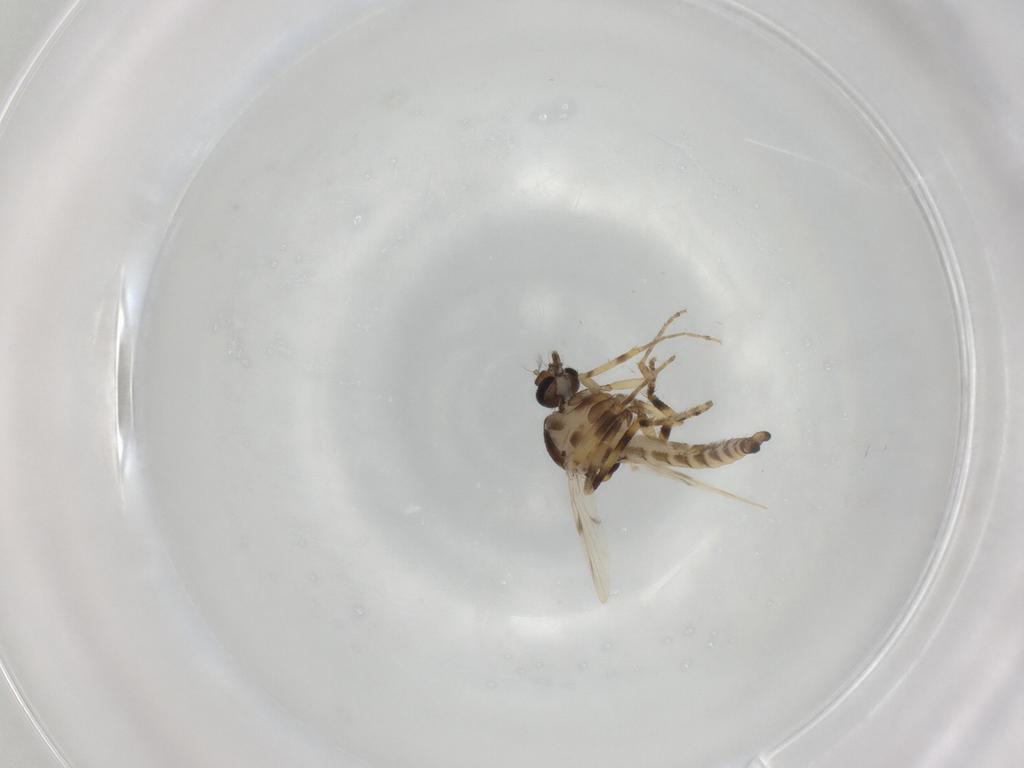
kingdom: Animalia
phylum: Arthropoda
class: Insecta
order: Diptera
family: Ceratopogonidae
